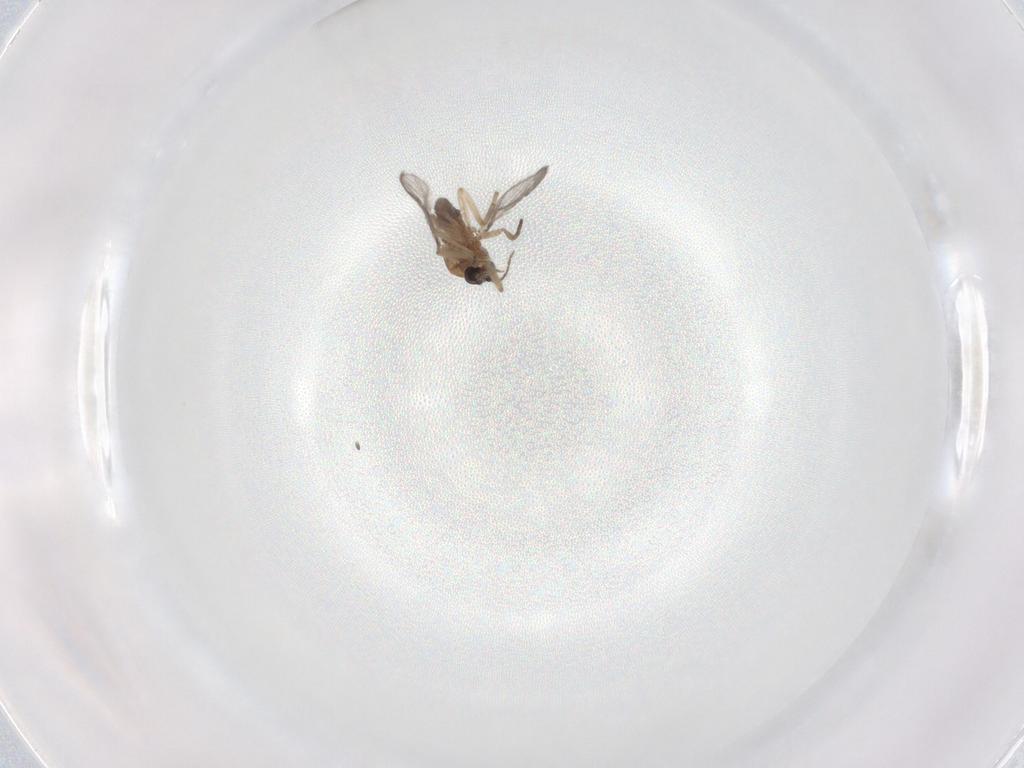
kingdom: Animalia
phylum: Arthropoda
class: Insecta
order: Diptera
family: Chironomidae
